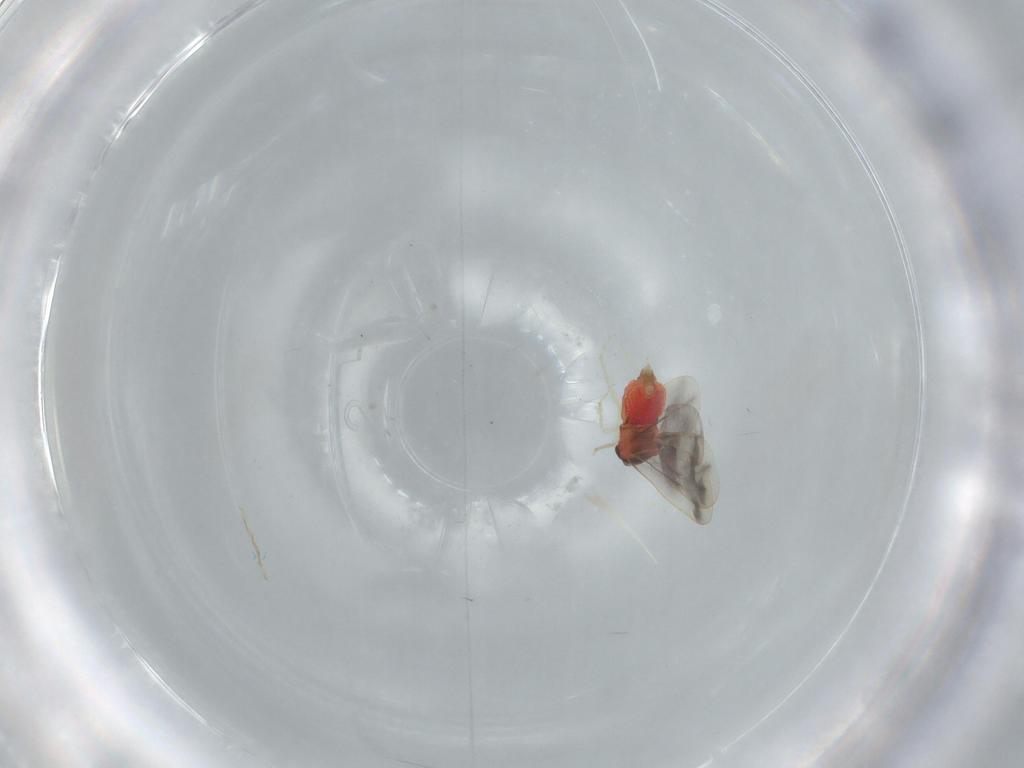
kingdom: Animalia
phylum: Arthropoda
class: Insecta
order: Hemiptera
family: Aleyrodidae
